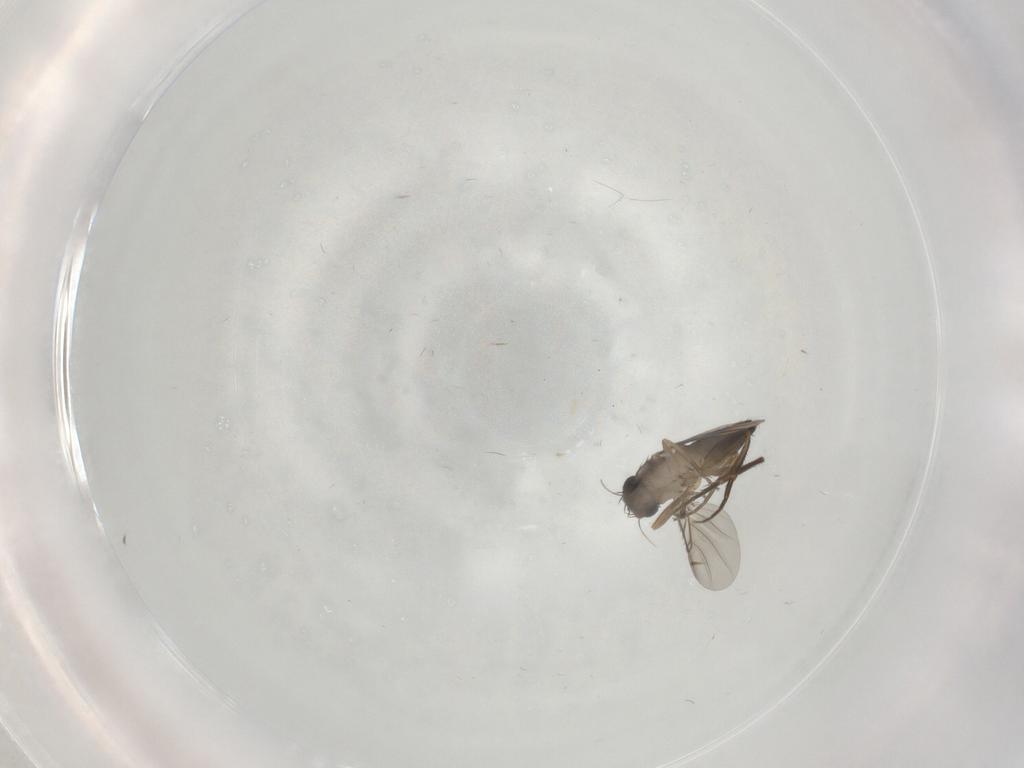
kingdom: Animalia
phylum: Arthropoda
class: Insecta
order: Diptera
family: Phoridae
